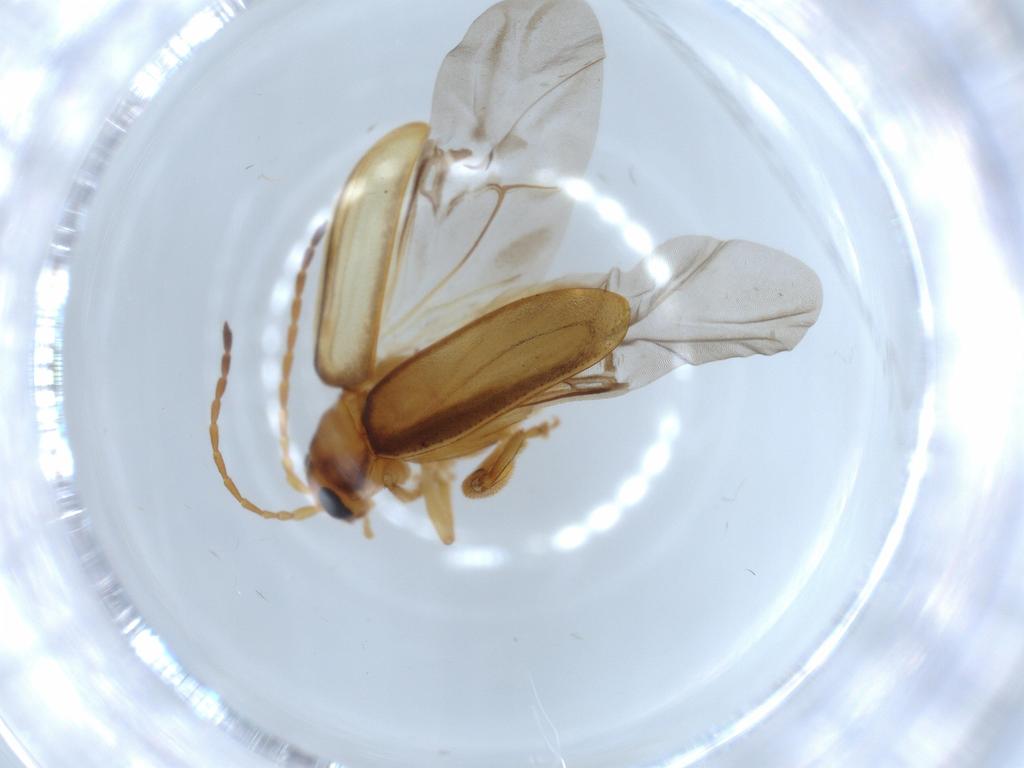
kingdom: Animalia
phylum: Arthropoda
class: Insecta
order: Coleoptera
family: Chrysomelidae
